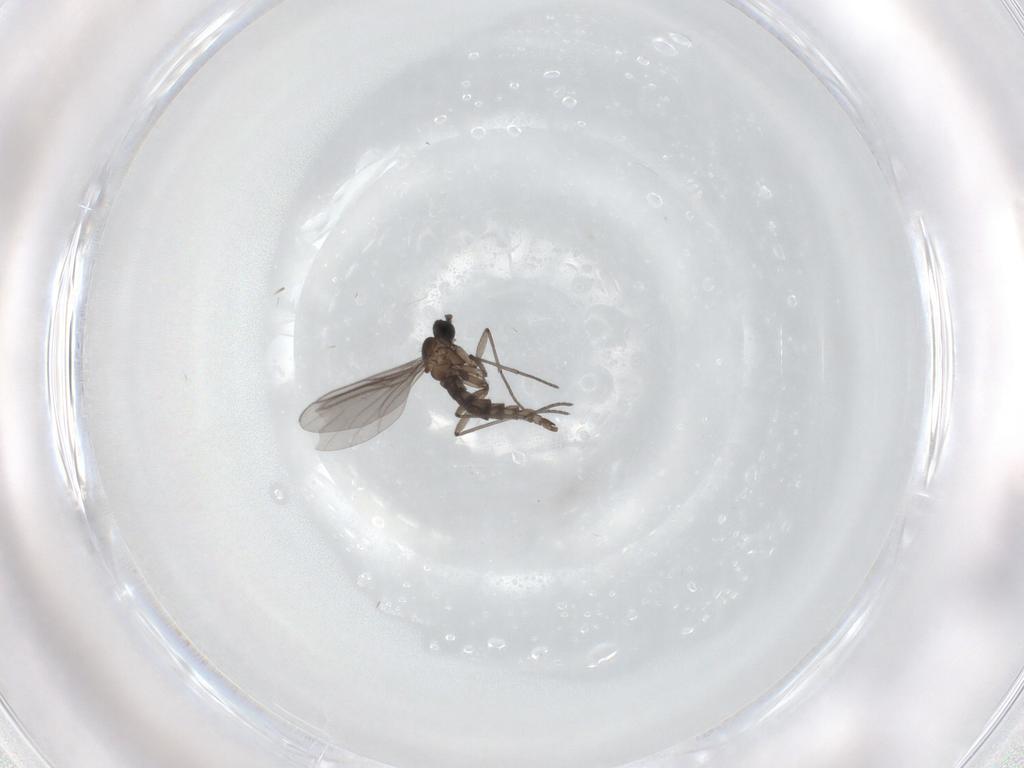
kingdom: Animalia
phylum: Arthropoda
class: Insecta
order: Diptera
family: Chironomidae
